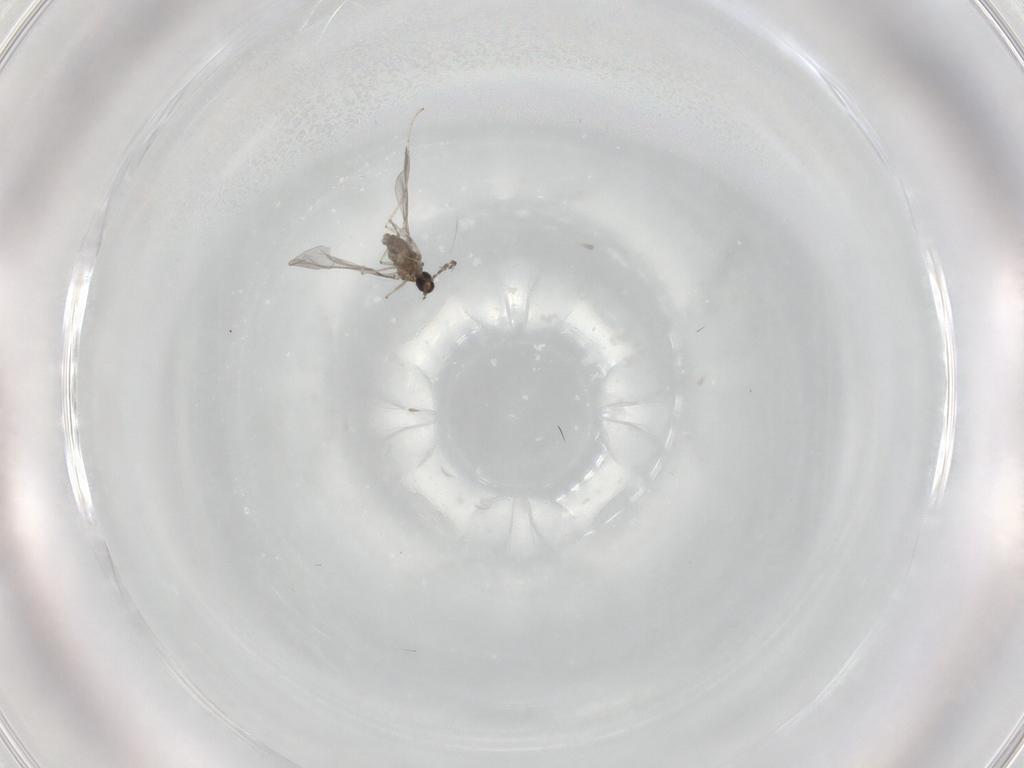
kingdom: Animalia
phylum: Arthropoda
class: Insecta
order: Diptera
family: Cecidomyiidae
